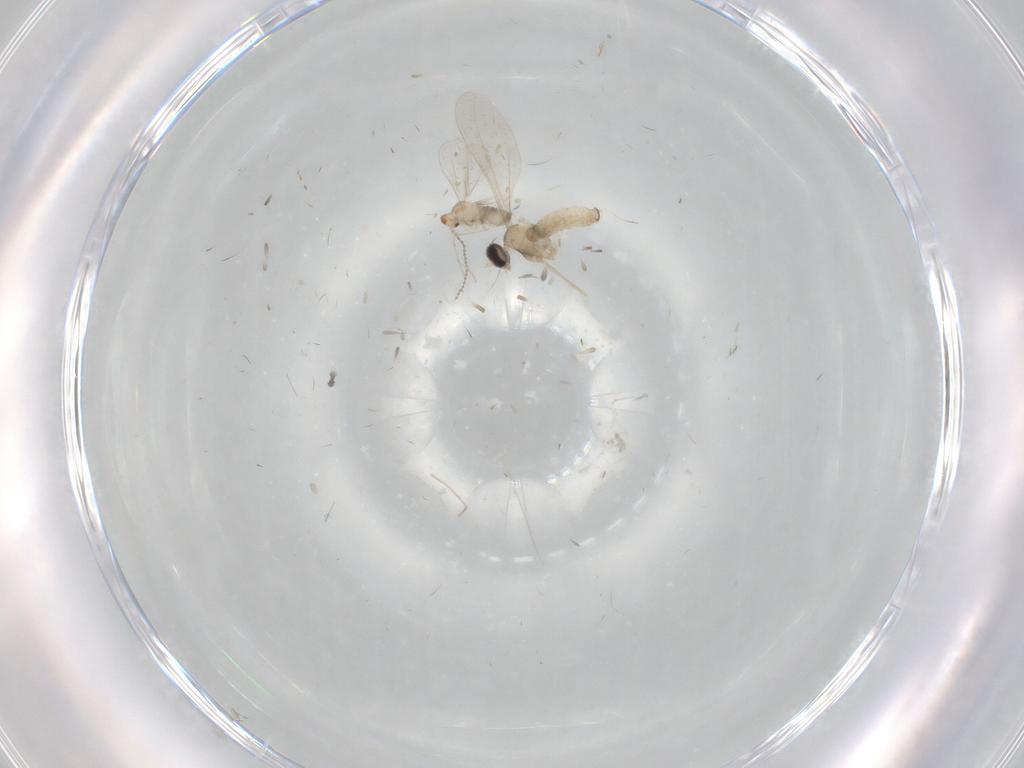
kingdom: Animalia
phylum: Arthropoda
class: Insecta
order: Diptera
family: Cecidomyiidae
